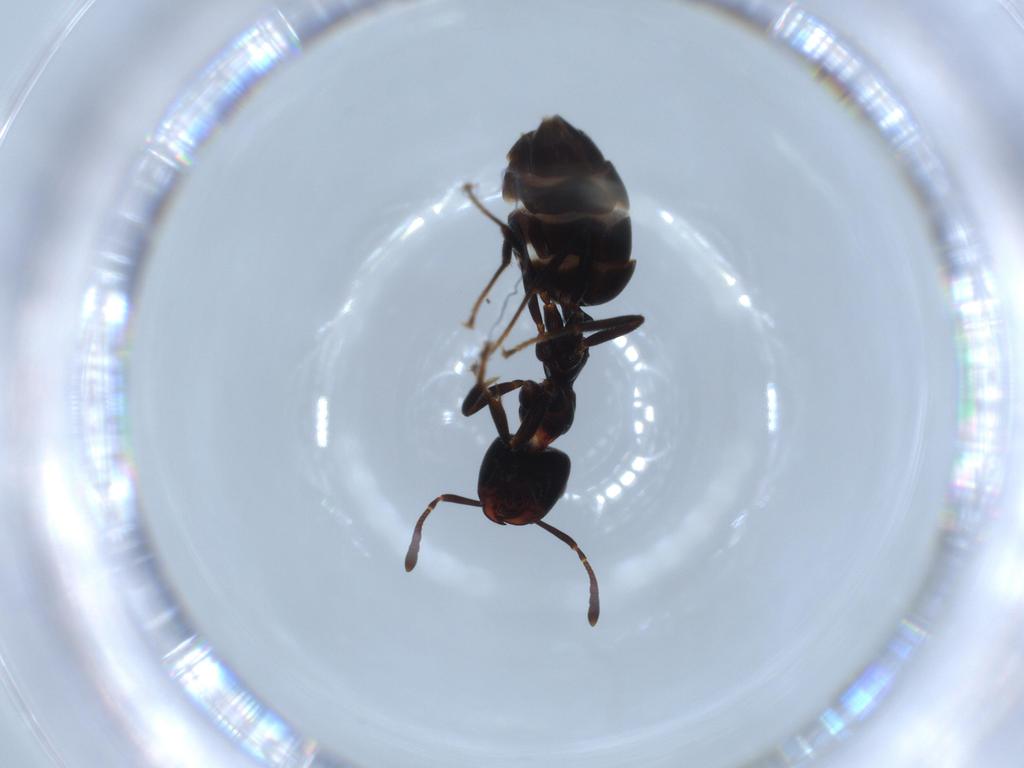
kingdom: Animalia
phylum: Arthropoda
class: Insecta
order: Hymenoptera
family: Formicidae
